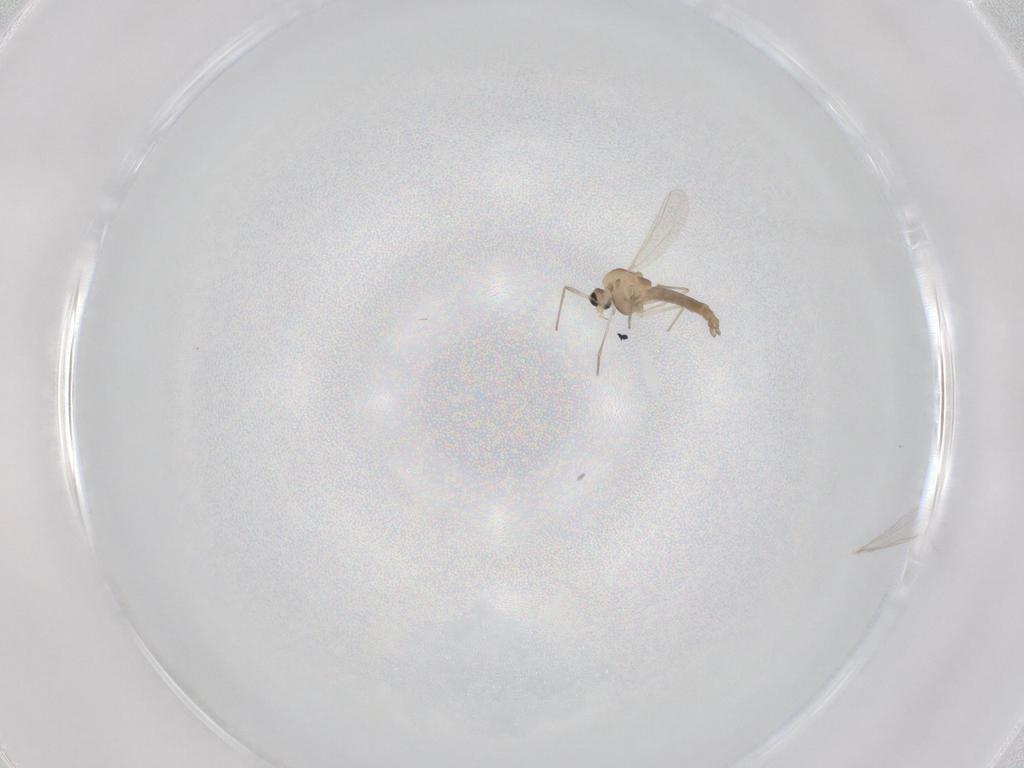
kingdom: Animalia
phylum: Arthropoda
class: Insecta
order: Diptera
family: Chironomidae
